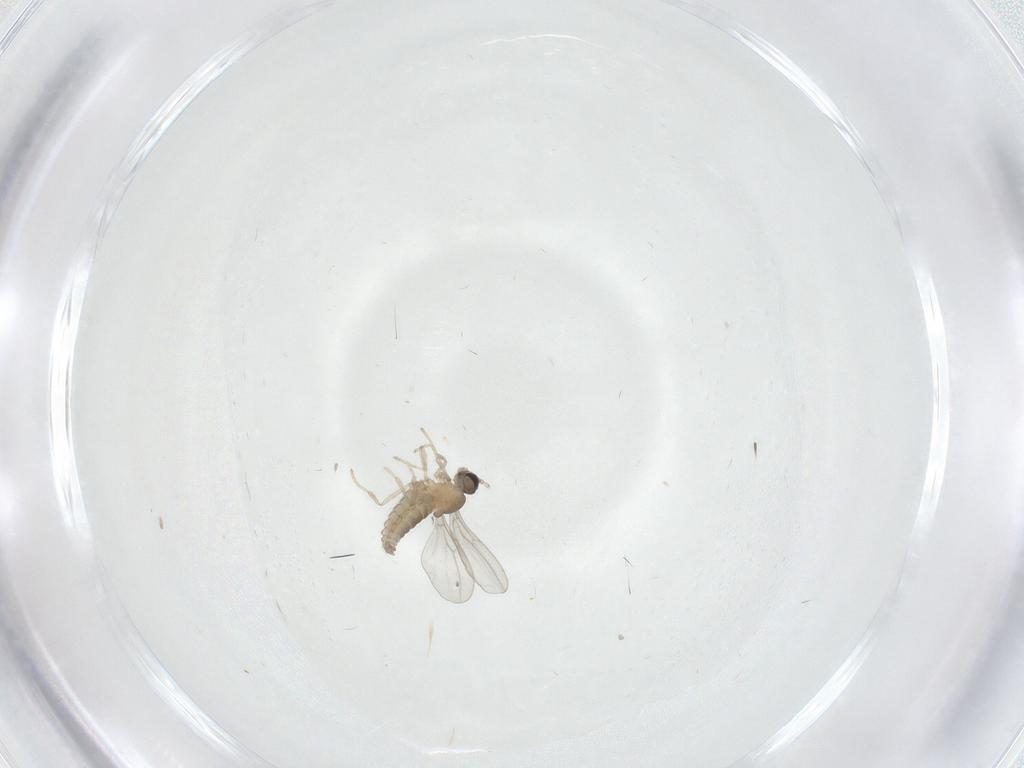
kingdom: Animalia
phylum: Arthropoda
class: Insecta
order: Diptera
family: Cecidomyiidae
